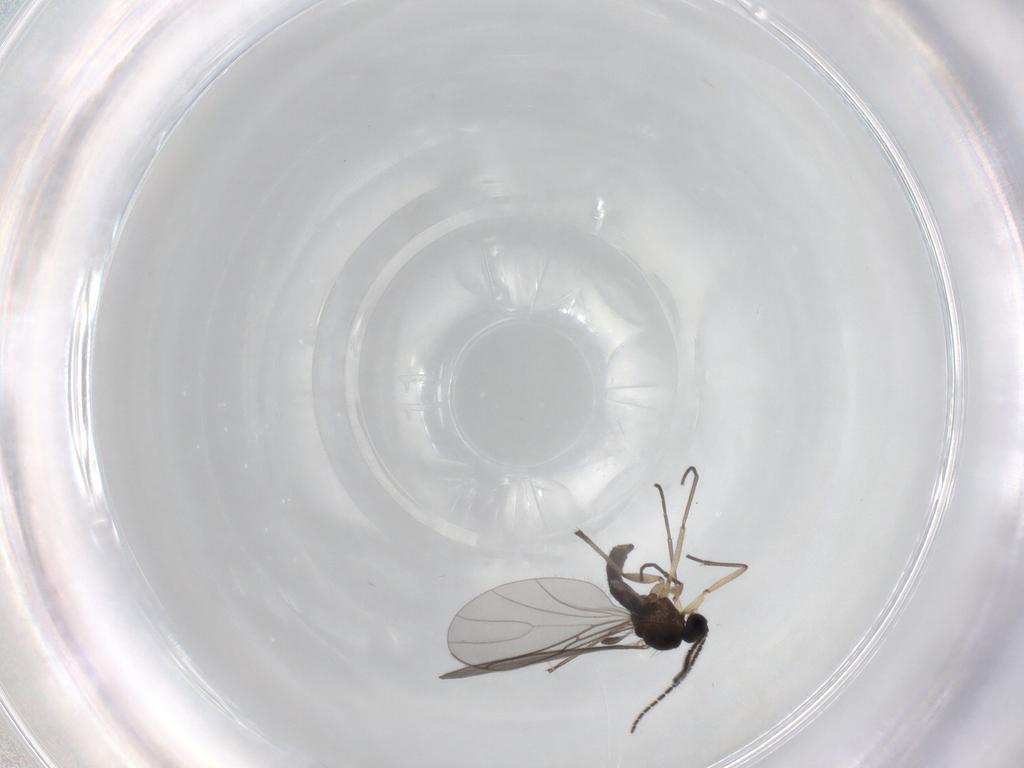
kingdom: Animalia
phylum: Arthropoda
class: Insecta
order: Diptera
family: Sciaridae
